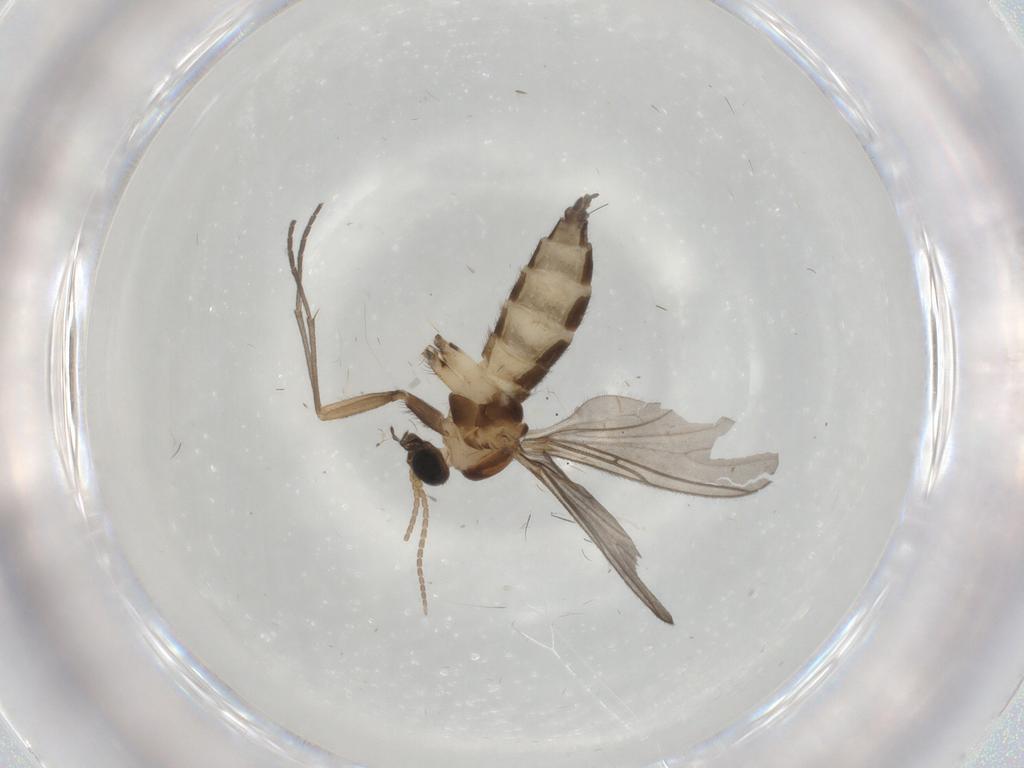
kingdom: Animalia
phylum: Arthropoda
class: Insecta
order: Diptera
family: Sciaridae
